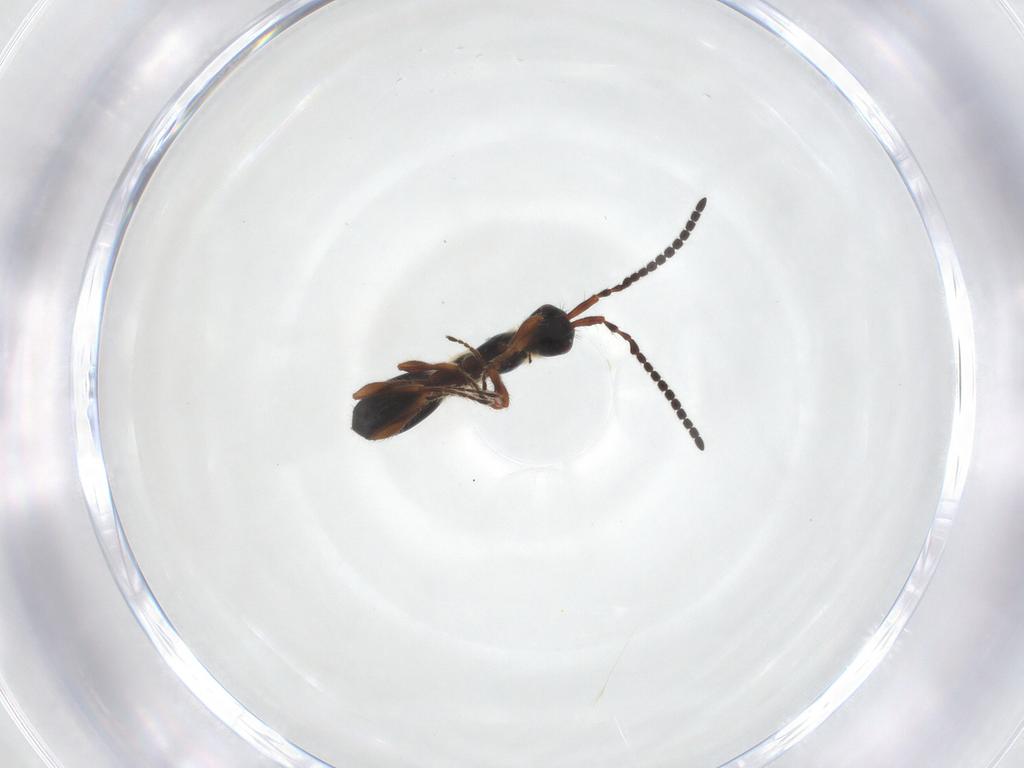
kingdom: Animalia
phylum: Arthropoda
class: Insecta
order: Hymenoptera
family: Diapriidae
